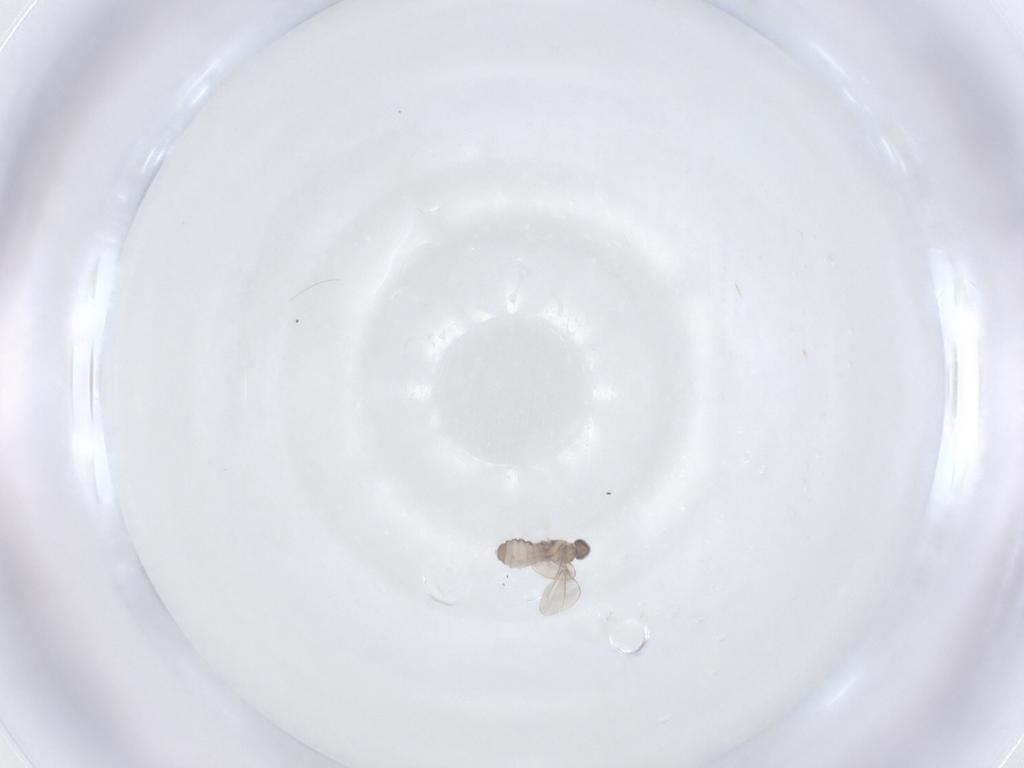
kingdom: Animalia
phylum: Arthropoda
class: Insecta
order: Diptera
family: Cecidomyiidae
